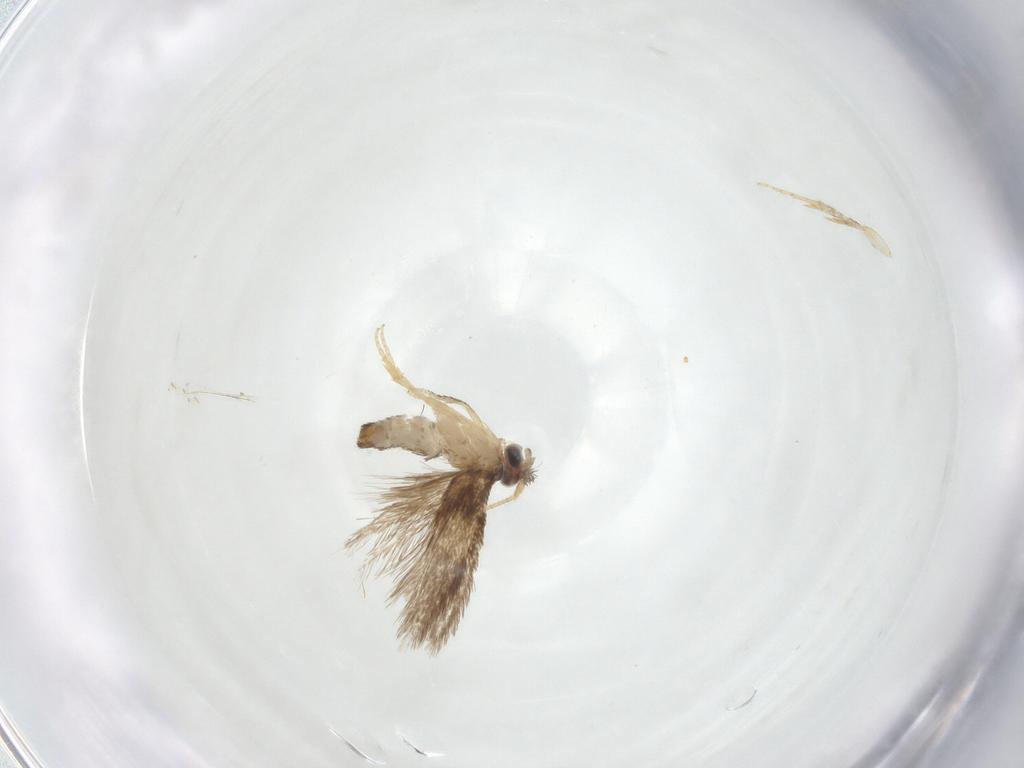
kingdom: Animalia
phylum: Arthropoda
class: Insecta
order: Lepidoptera
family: Nepticulidae
